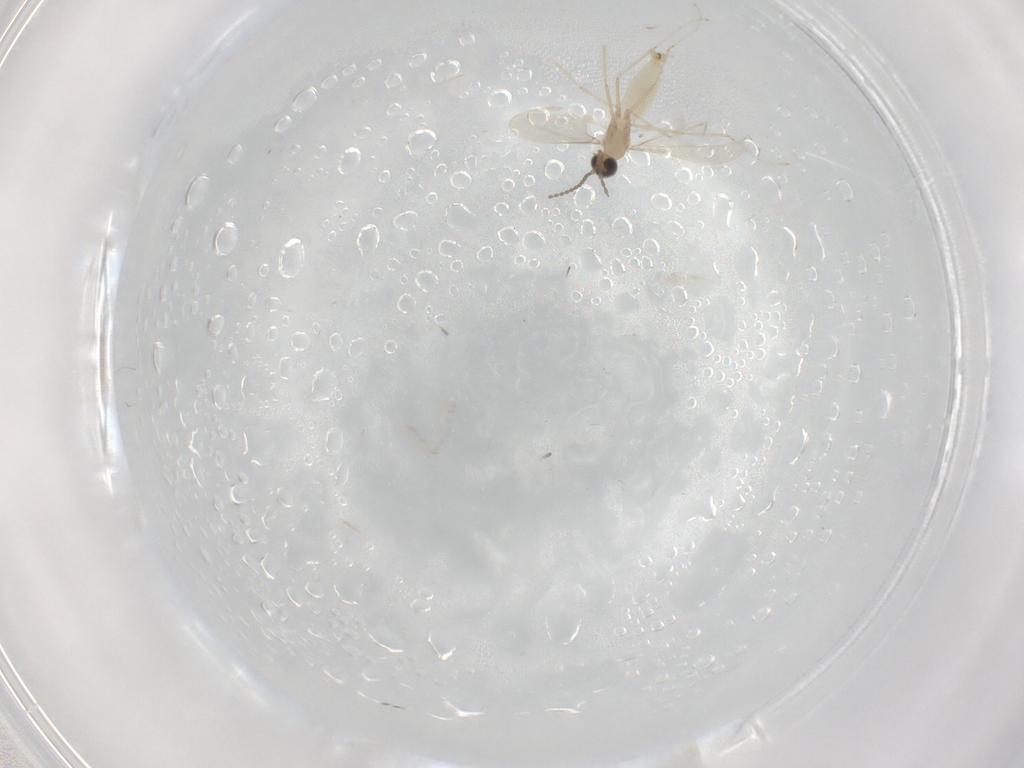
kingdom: Animalia
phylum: Arthropoda
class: Insecta
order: Diptera
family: Cecidomyiidae
